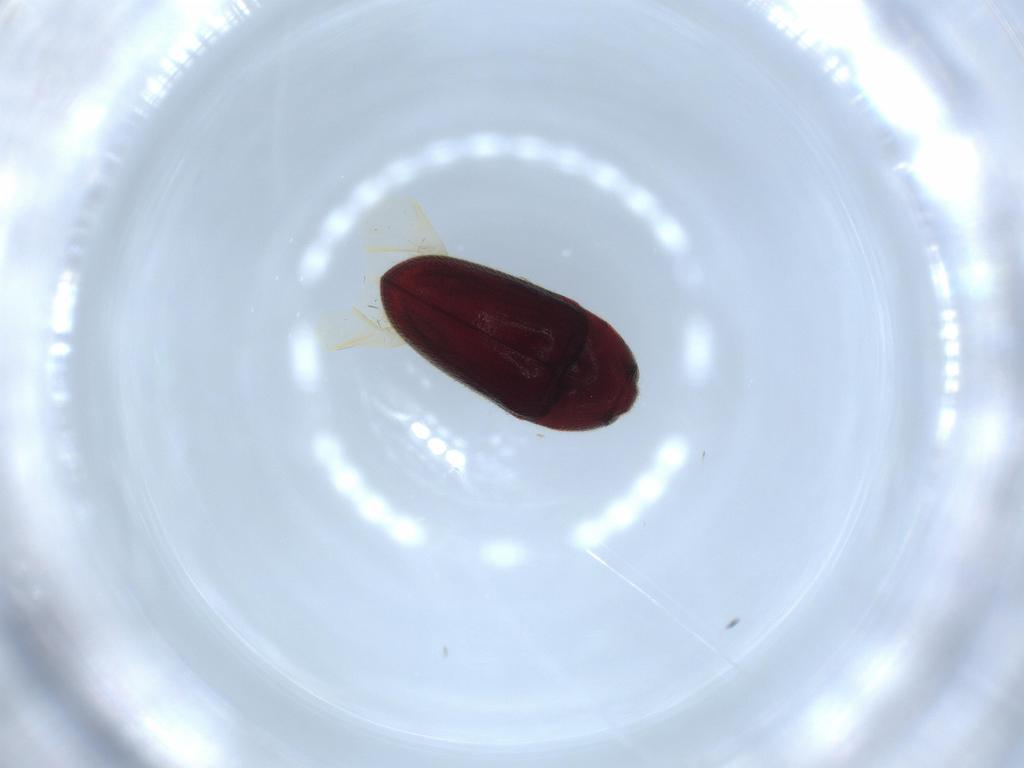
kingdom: Animalia
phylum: Arthropoda
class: Insecta
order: Coleoptera
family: Throscidae
